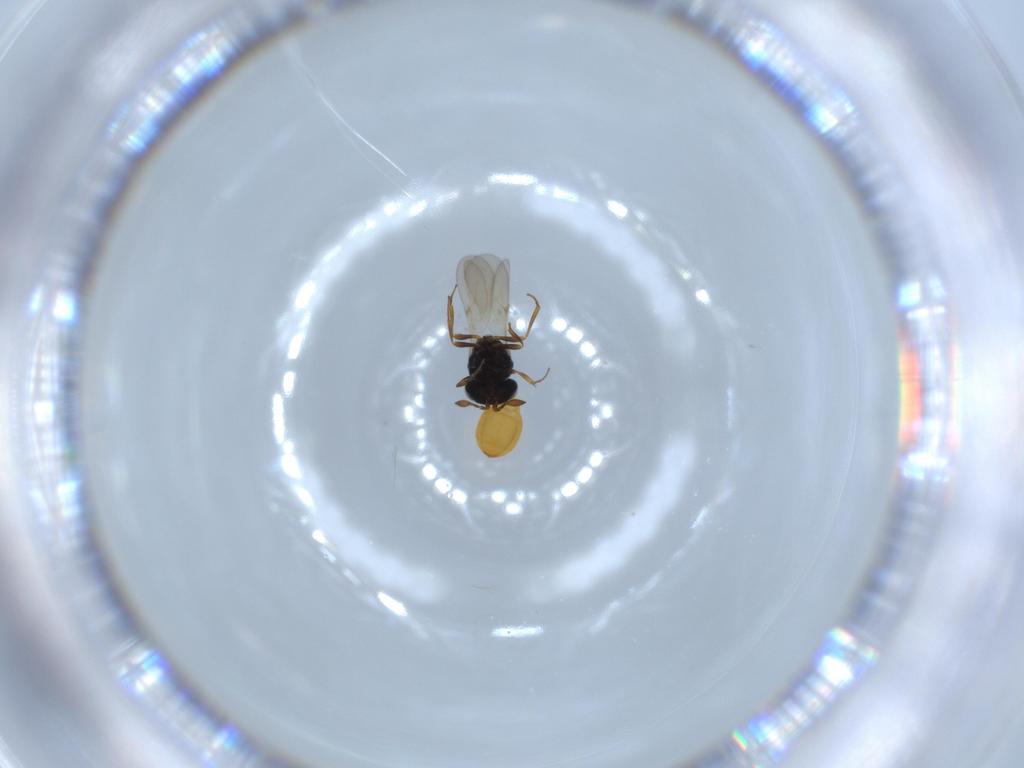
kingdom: Animalia
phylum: Arthropoda
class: Insecta
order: Hymenoptera
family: Scelionidae
